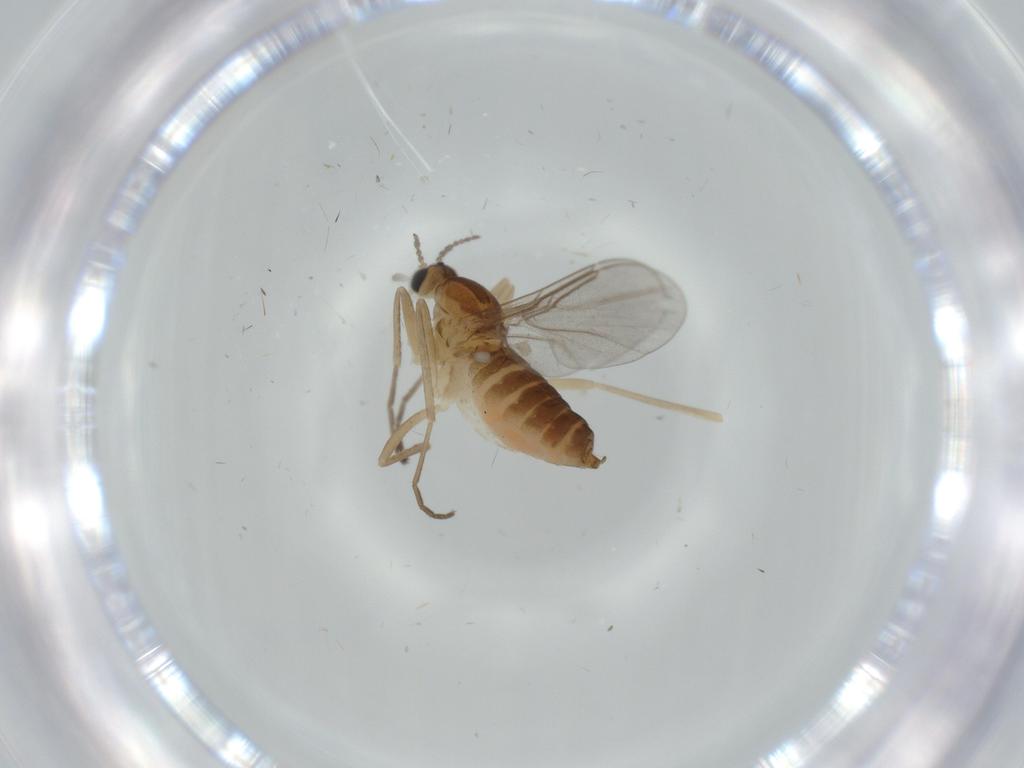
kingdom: Animalia
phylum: Arthropoda
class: Insecta
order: Diptera
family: Cecidomyiidae
